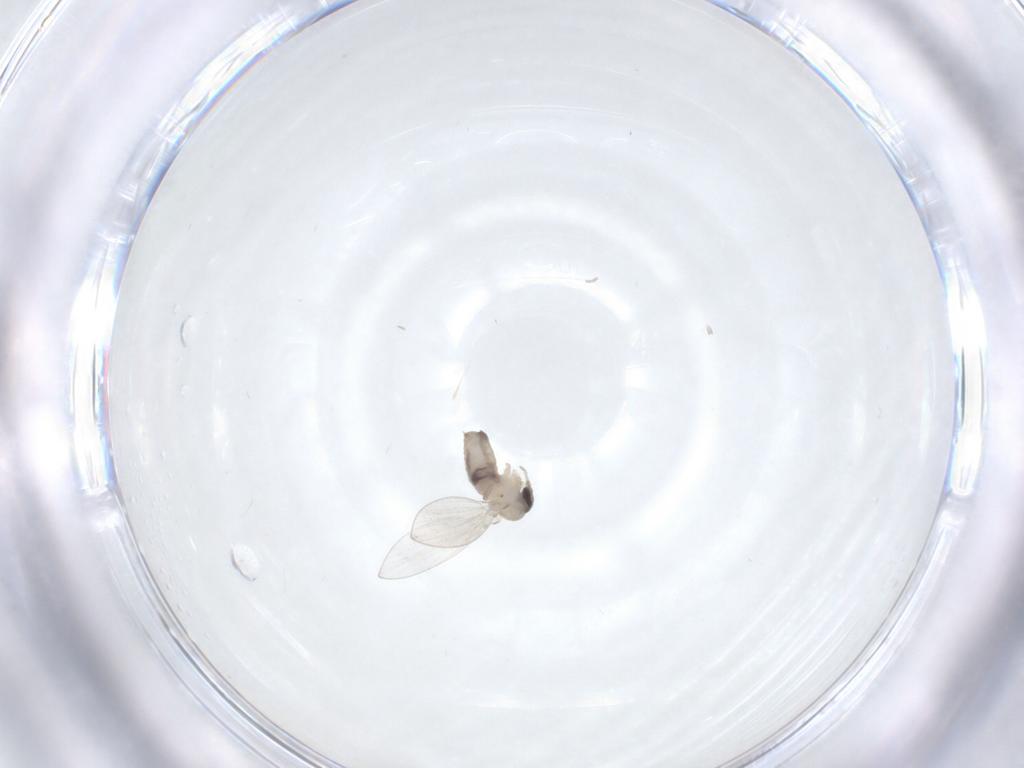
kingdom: Animalia
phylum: Arthropoda
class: Insecta
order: Diptera
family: Psychodidae
